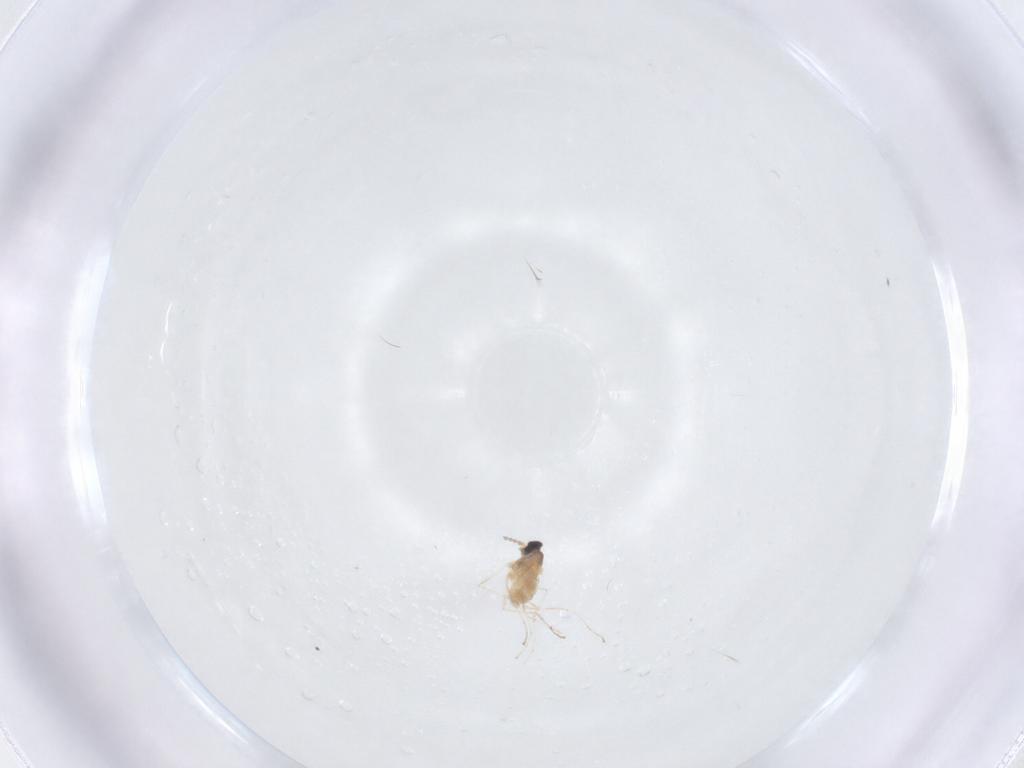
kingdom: Animalia
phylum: Arthropoda
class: Insecta
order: Diptera
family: Cecidomyiidae
